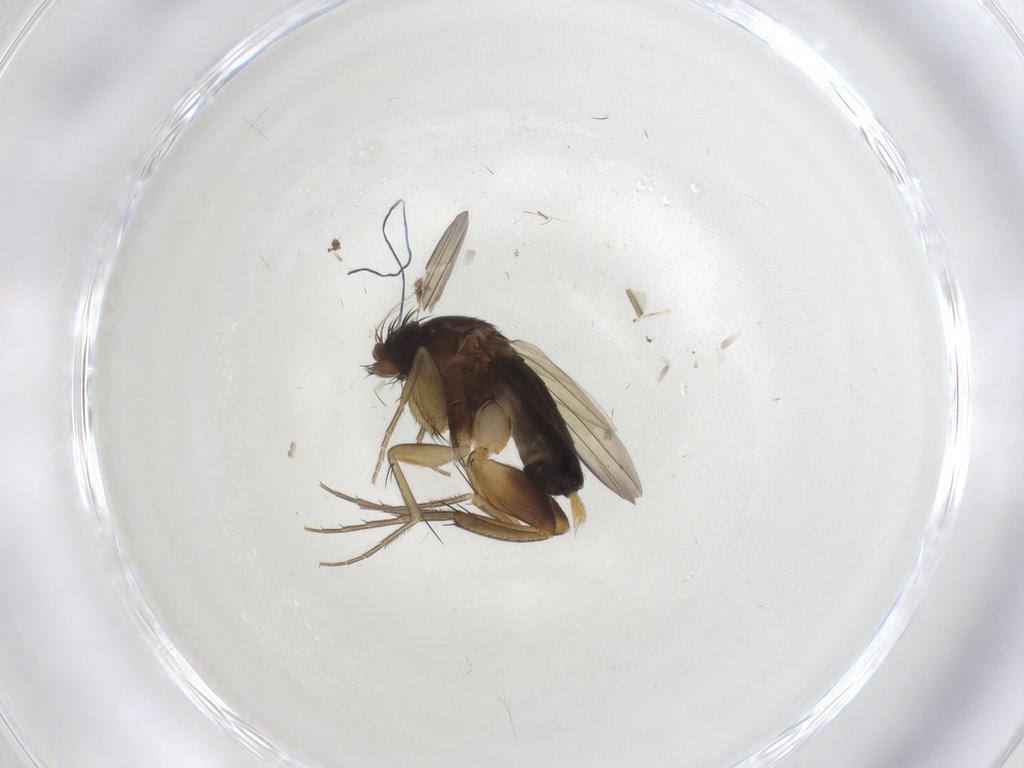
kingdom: Animalia
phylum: Arthropoda
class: Insecta
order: Diptera
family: Phoridae
